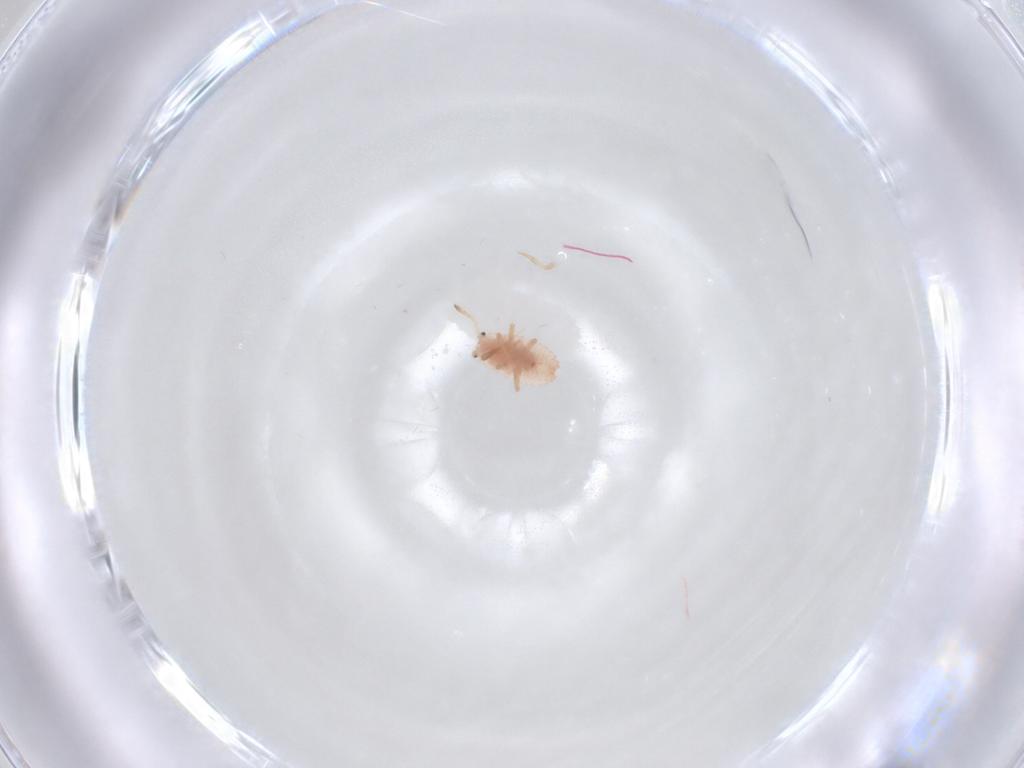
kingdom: Animalia
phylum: Arthropoda
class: Insecta
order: Hemiptera
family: Coccoidea_incertae_sedis
